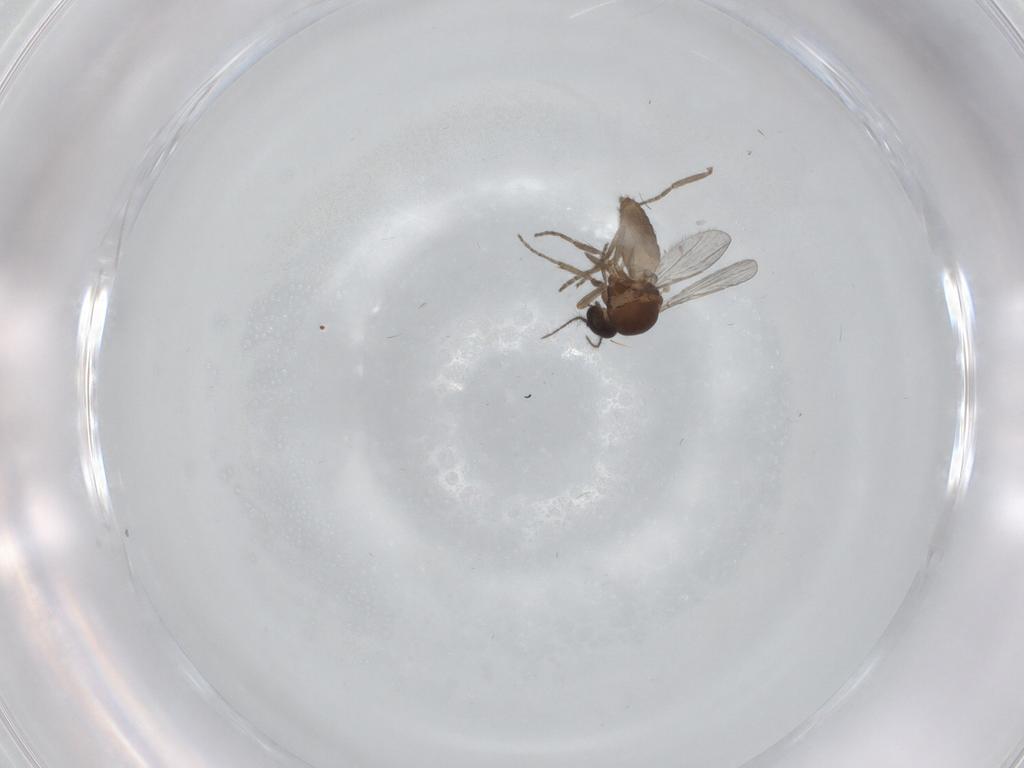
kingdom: Animalia
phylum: Arthropoda
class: Insecta
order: Diptera
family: Ceratopogonidae
